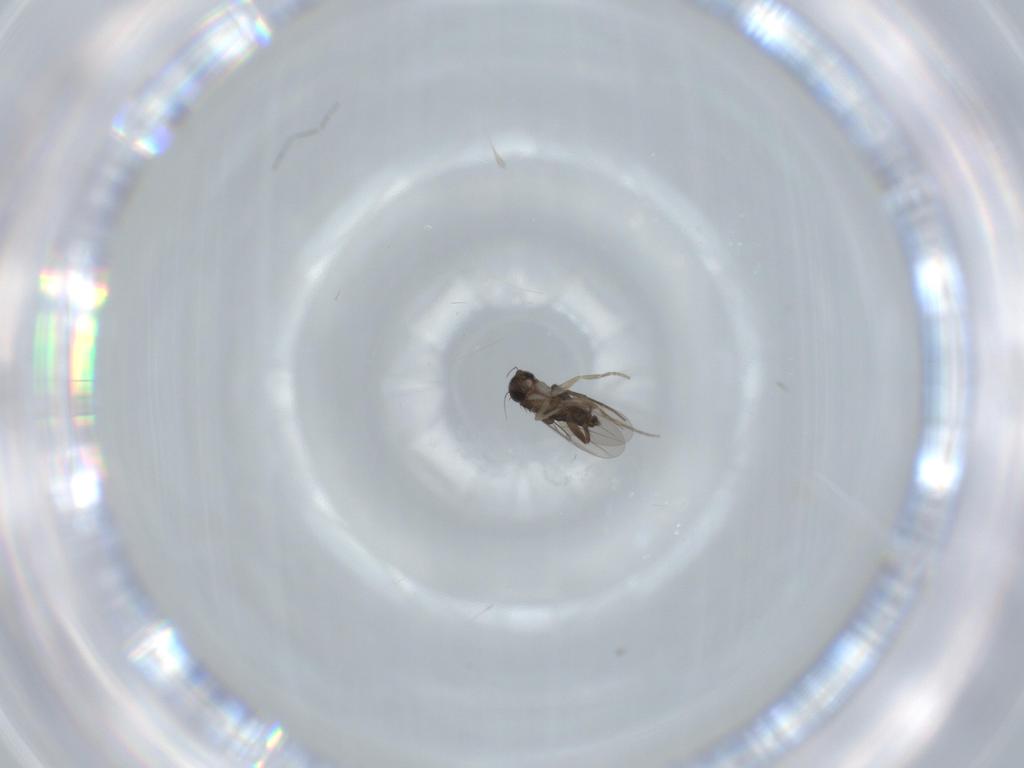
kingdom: Animalia
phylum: Arthropoda
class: Insecta
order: Diptera
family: Phoridae
